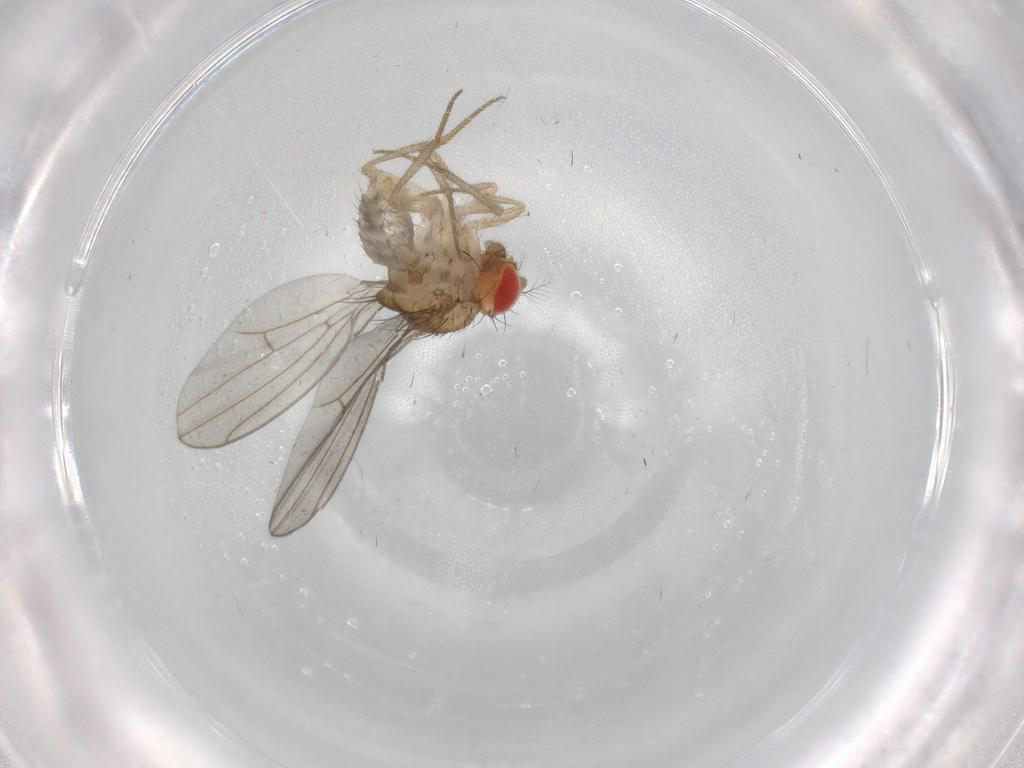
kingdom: Animalia
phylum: Arthropoda
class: Insecta
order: Diptera
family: Drosophilidae
